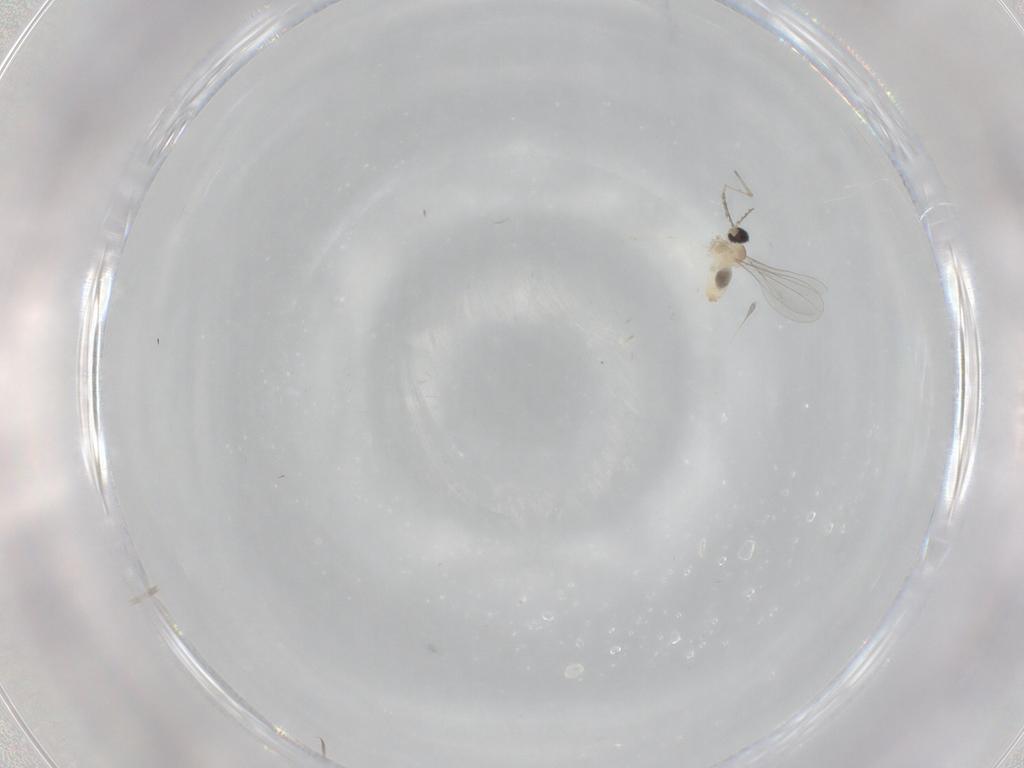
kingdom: Animalia
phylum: Arthropoda
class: Insecta
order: Diptera
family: Cecidomyiidae
